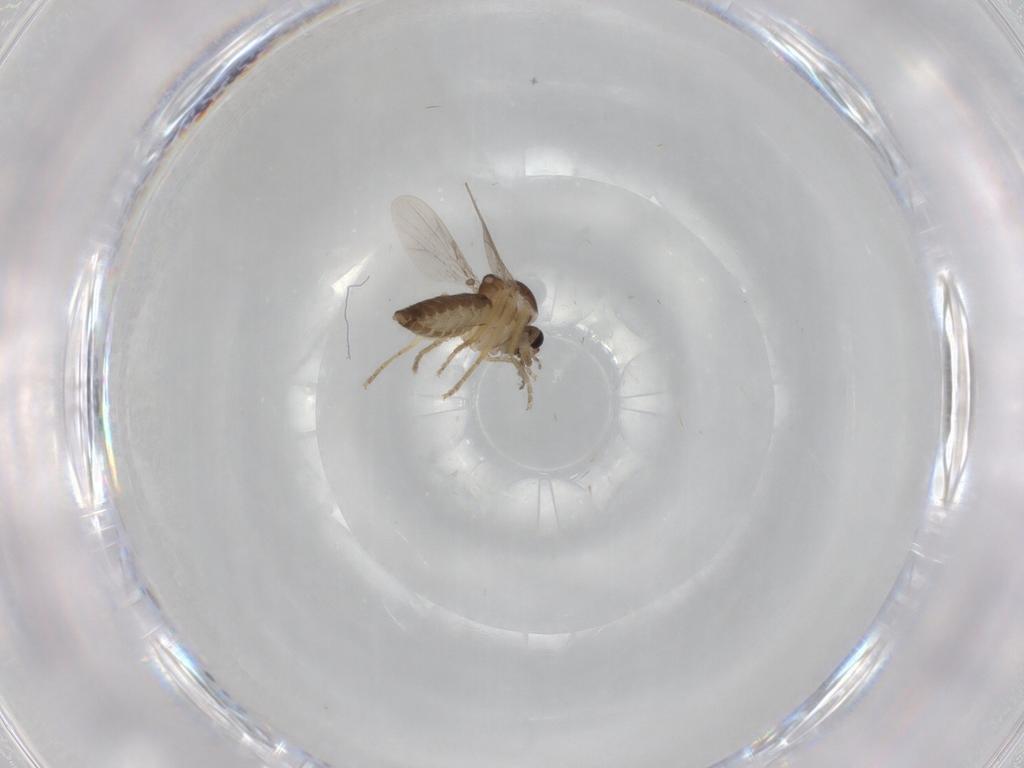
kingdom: Animalia
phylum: Arthropoda
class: Insecta
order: Diptera
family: Ceratopogonidae
